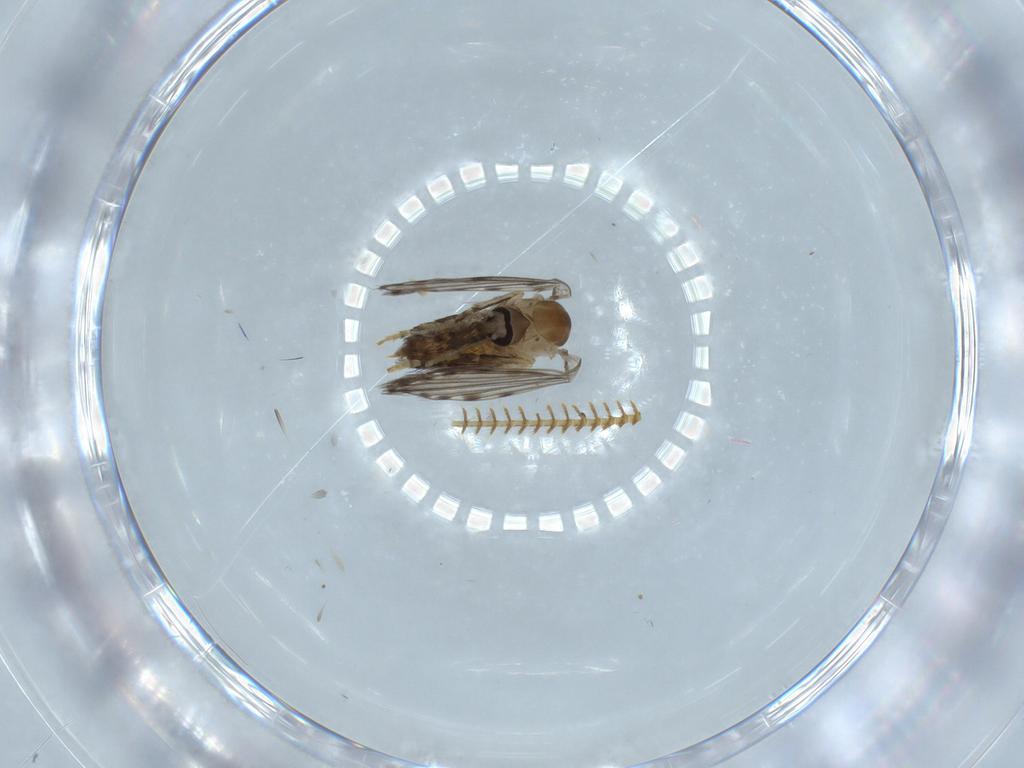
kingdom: Animalia
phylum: Arthropoda
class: Insecta
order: Diptera
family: Psychodidae
